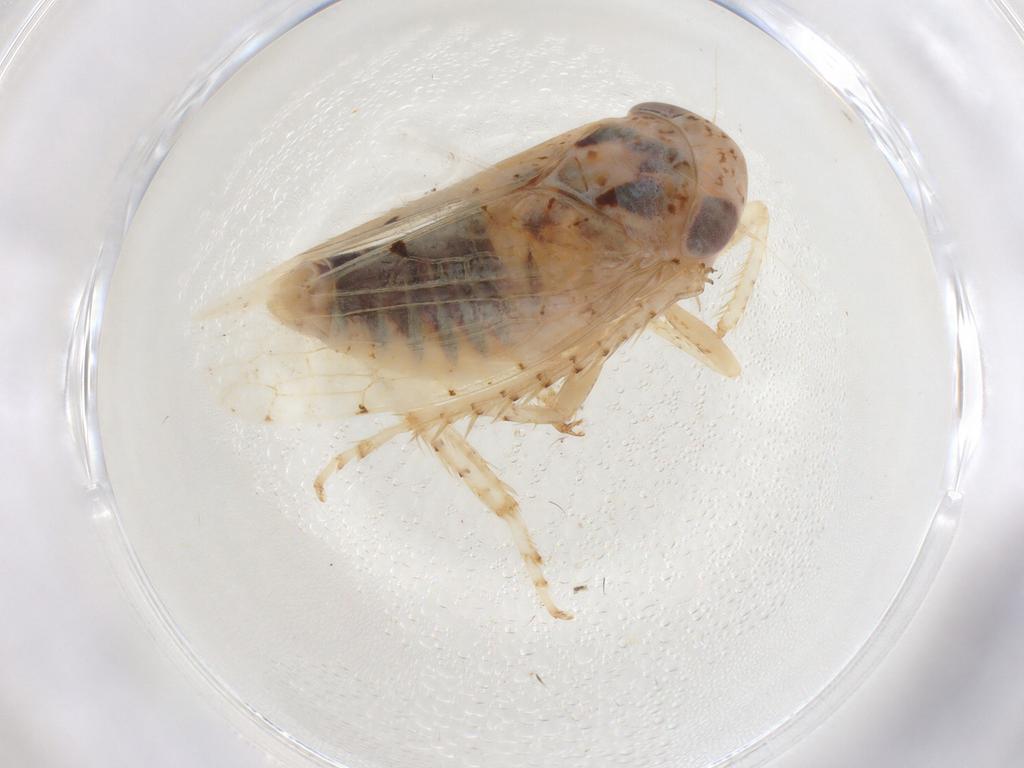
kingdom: Animalia
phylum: Arthropoda
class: Insecta
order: Hemiptera
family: Cicadellidae
